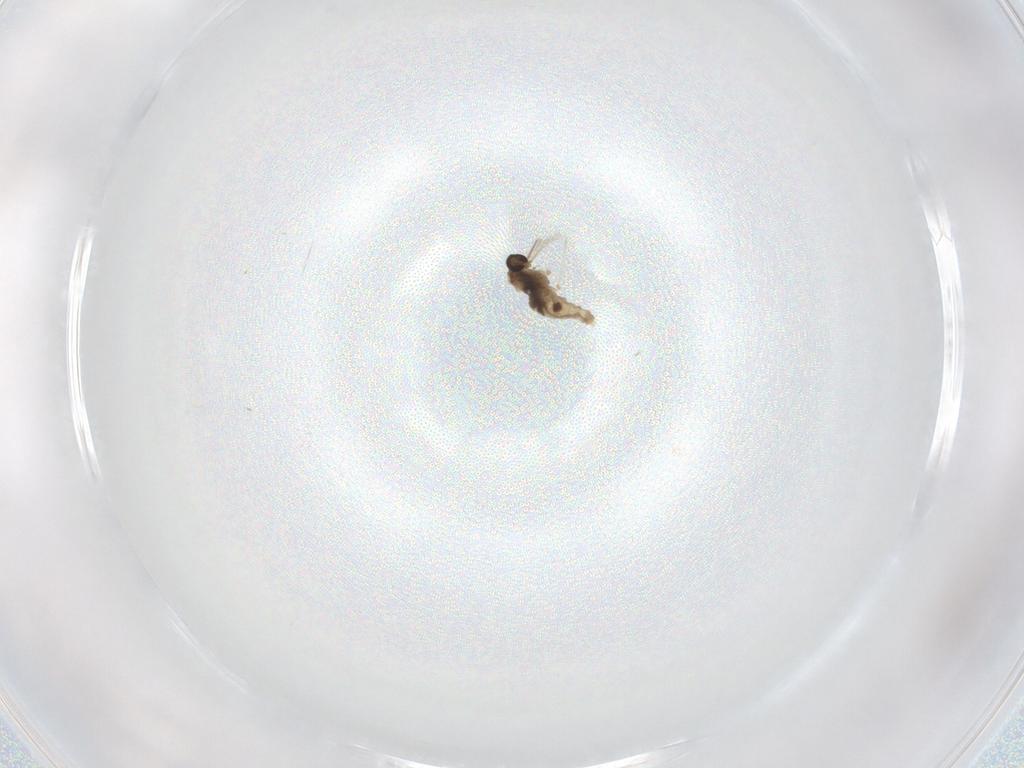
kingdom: Animalia
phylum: Arthropoda
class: Insecta
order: Diptera
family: Cecidomyiidae
